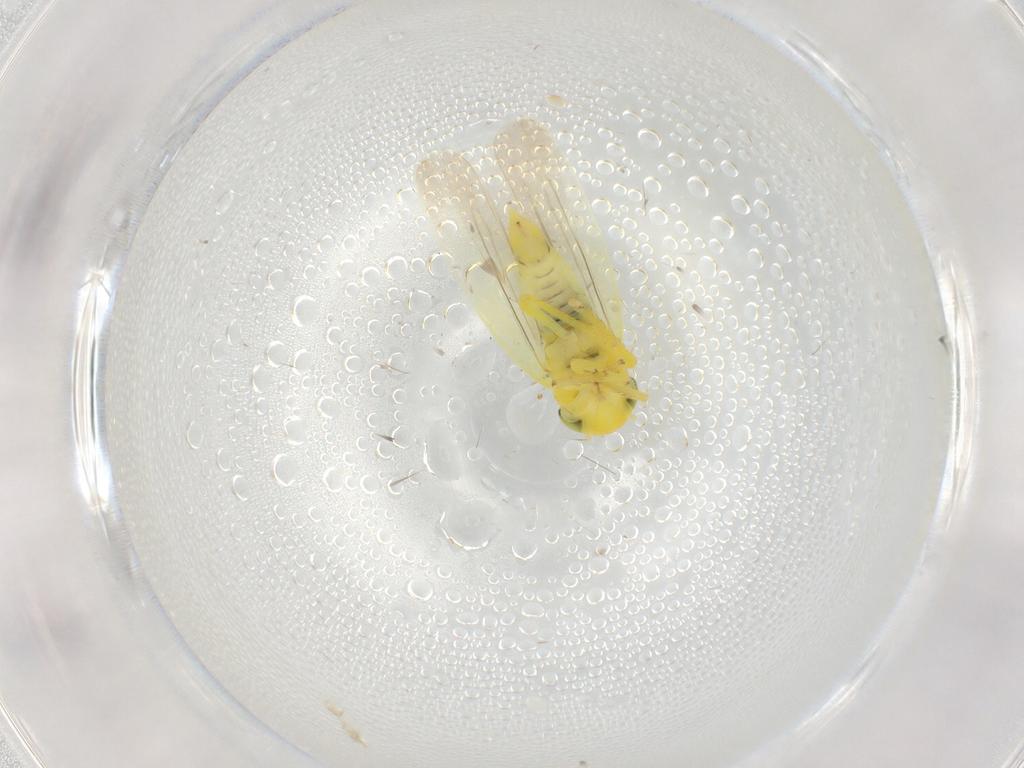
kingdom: Animalia
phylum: Arthropoda
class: Insecta
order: Hemiptera
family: Cicadellidae
